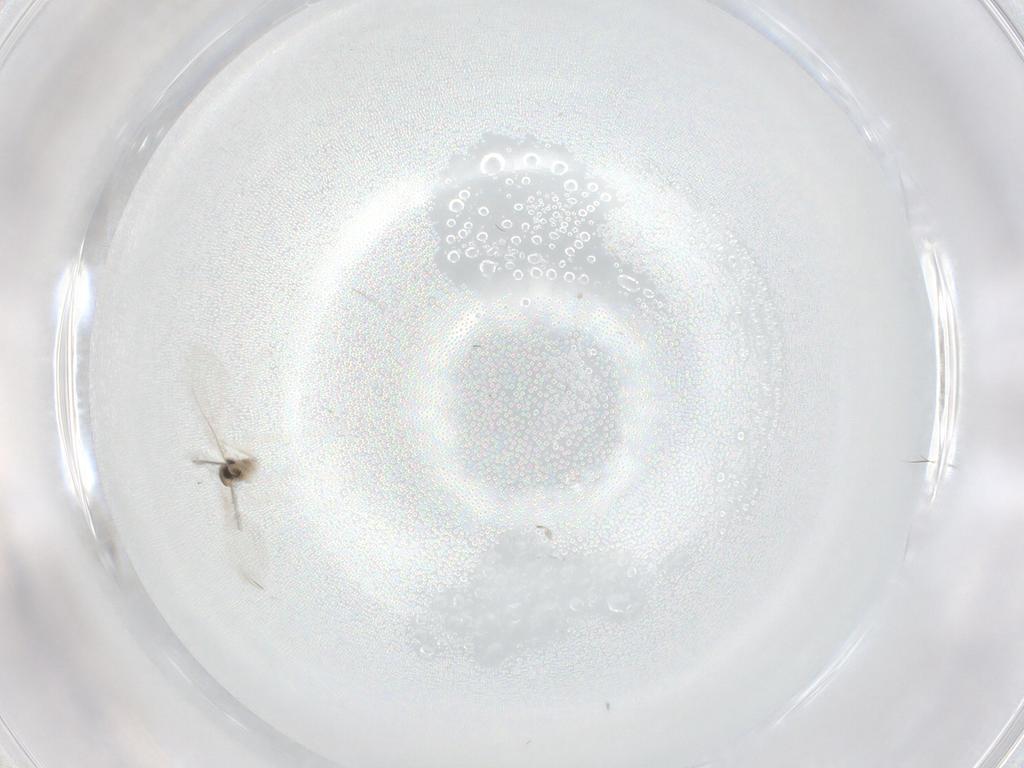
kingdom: Animalia
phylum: Arthropoda
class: Insecta
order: Diptera
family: Cecidomyiidae
